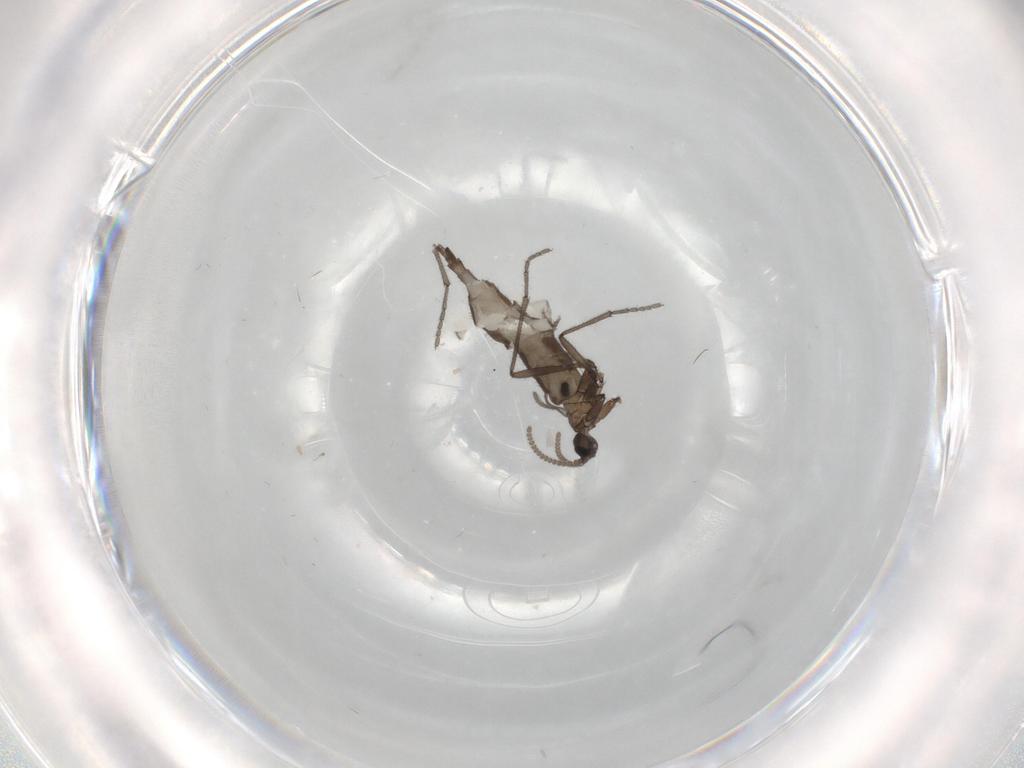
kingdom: Animalia
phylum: Arthropoda
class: Insecta
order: Diptera
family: Sciaridae
